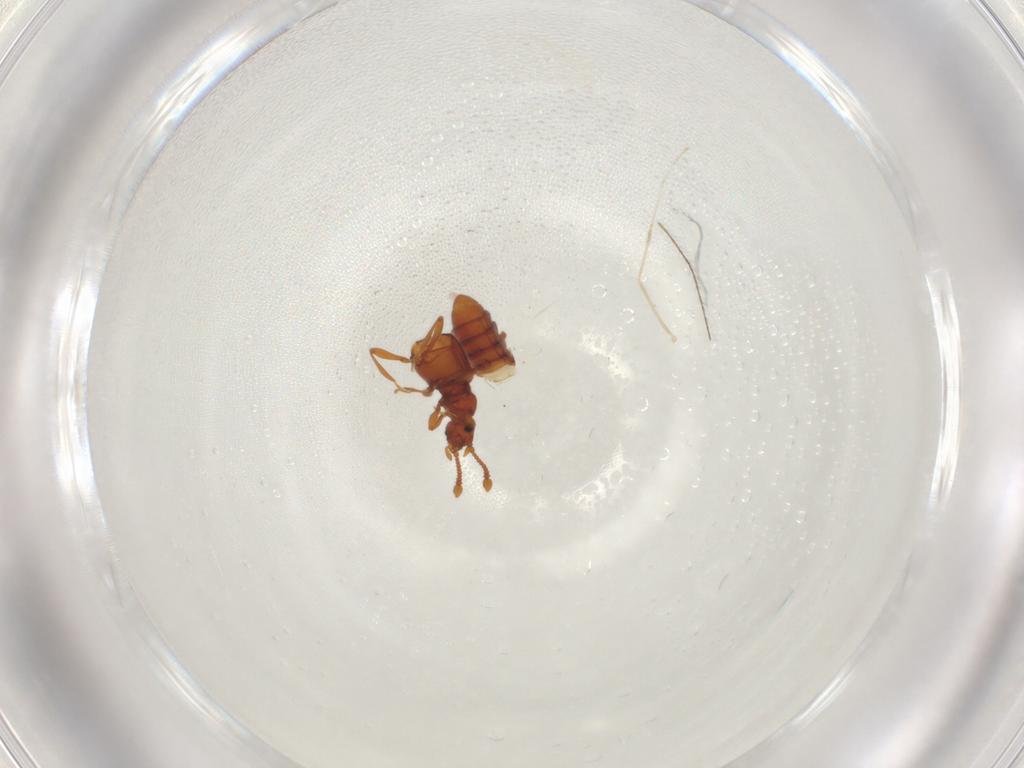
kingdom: Animalia
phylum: Arthropoda
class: Insecta
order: Coleoptera
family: Staphylinidae
